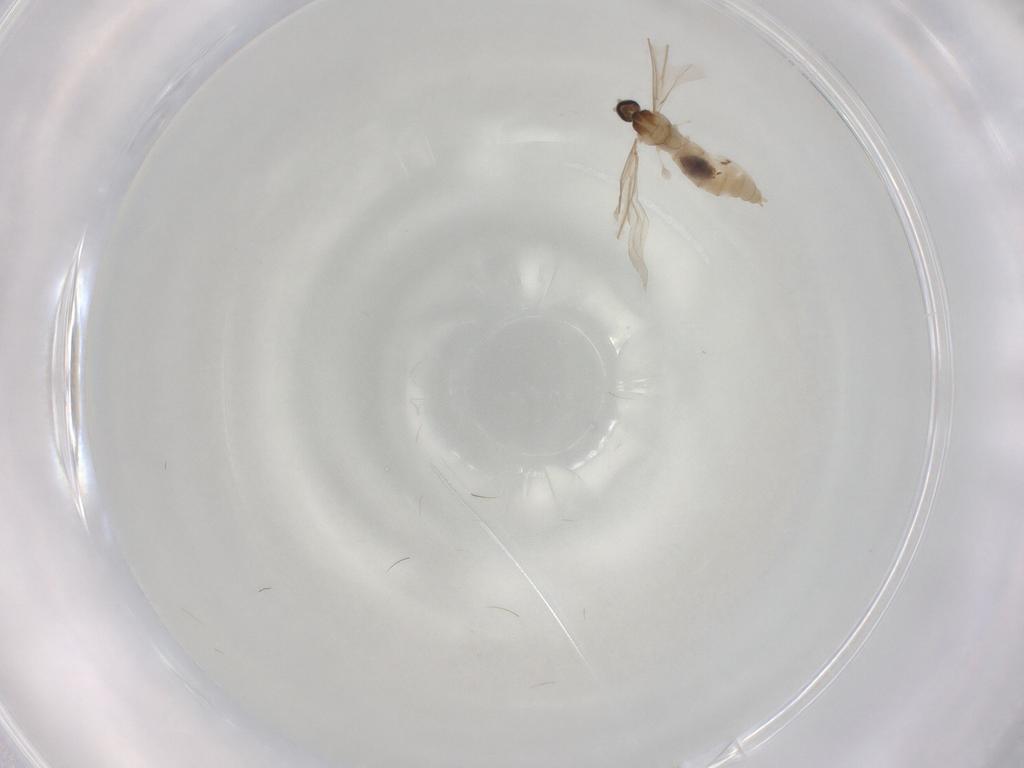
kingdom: Animalia
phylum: Arthropoda
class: Insecta
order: Diptera
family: Cecidomyiidae
